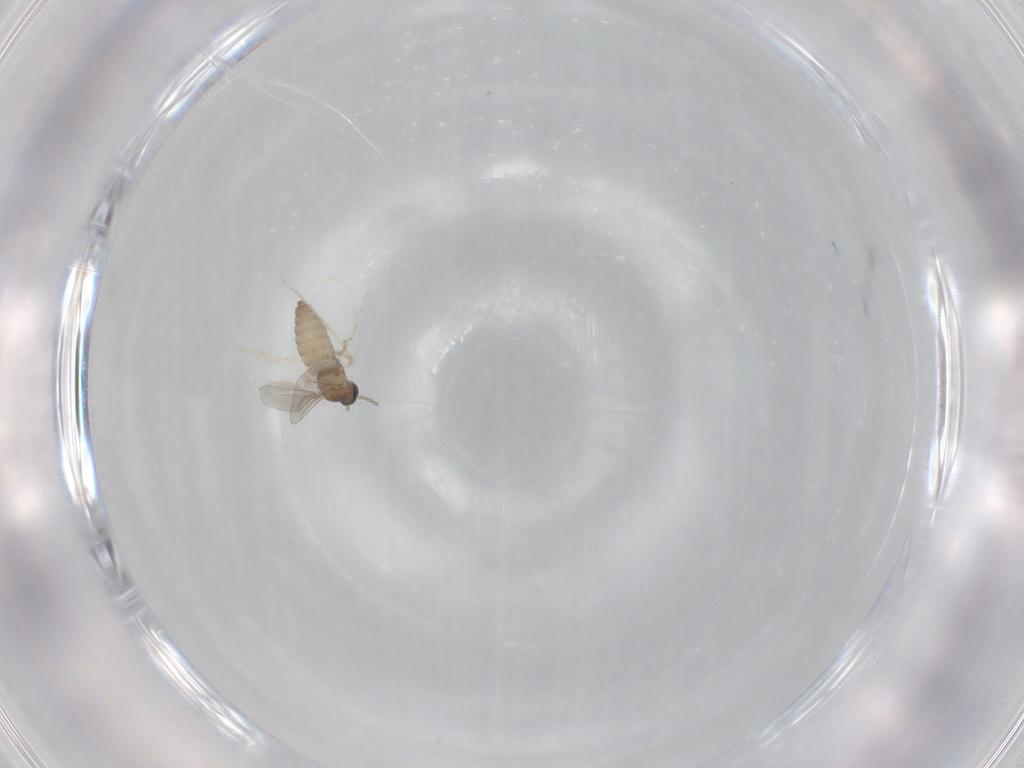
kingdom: Animalia
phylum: Arthropoda
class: Insecta
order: Diptera
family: Cecidomyiidae
